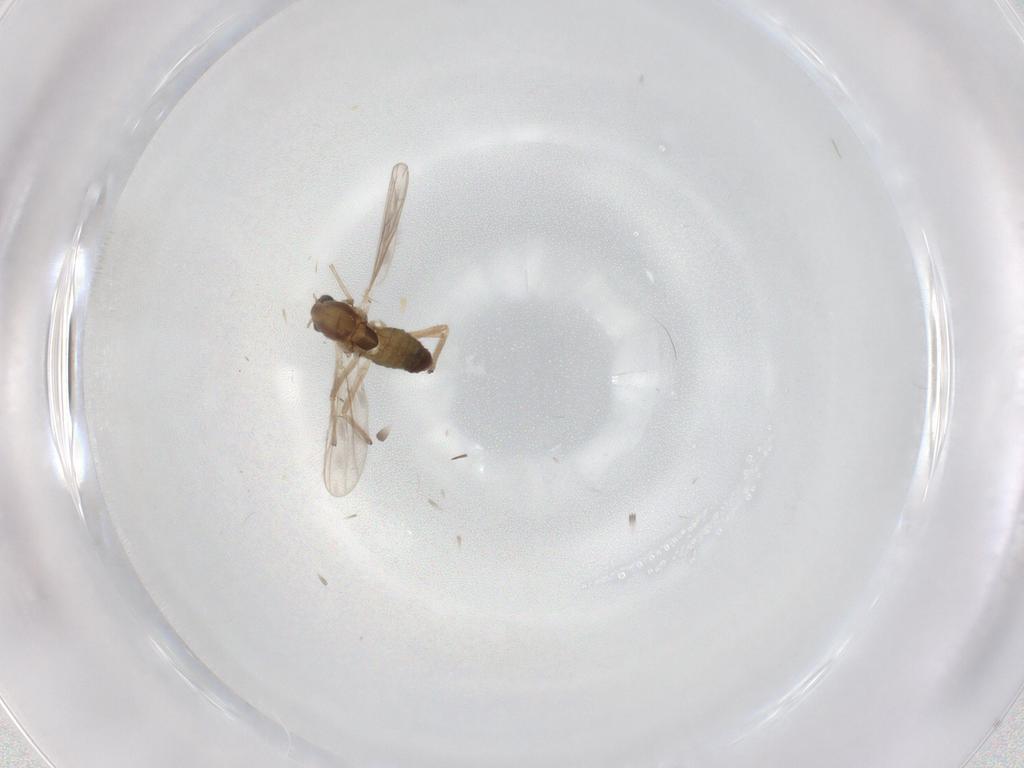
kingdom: Animalia
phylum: Arthropoda
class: Insecta
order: Diptera
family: Chironomidae
